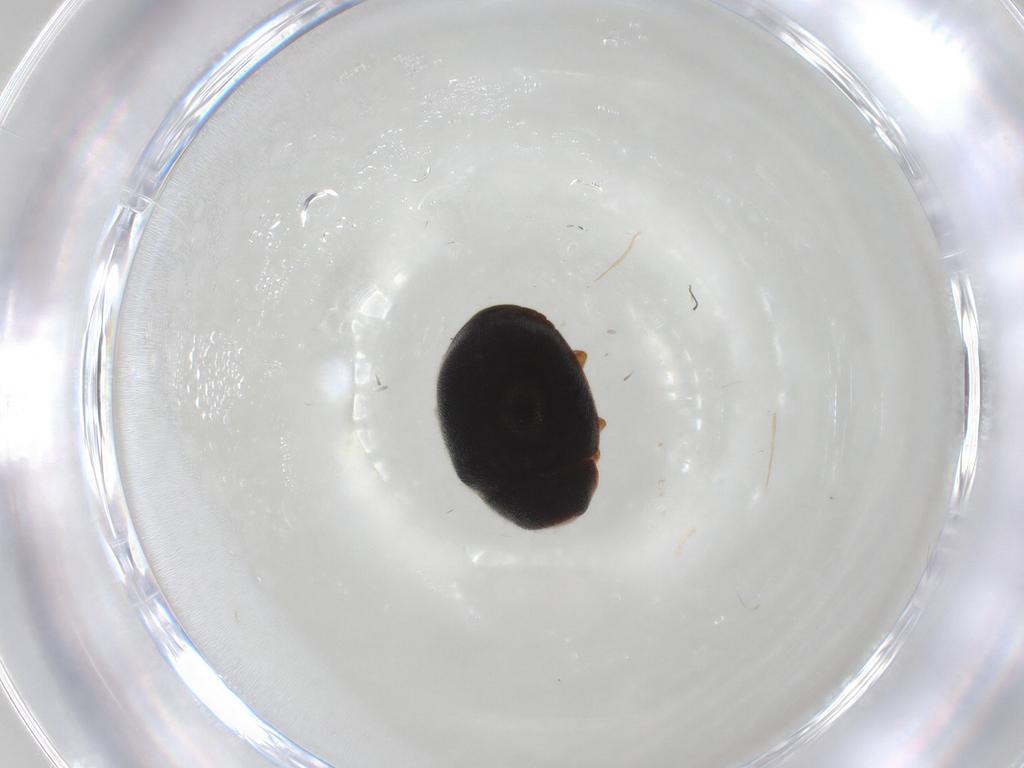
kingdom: Animalia
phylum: Arthropoda
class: Insecta
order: Coleoptera
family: Coccinellidae
